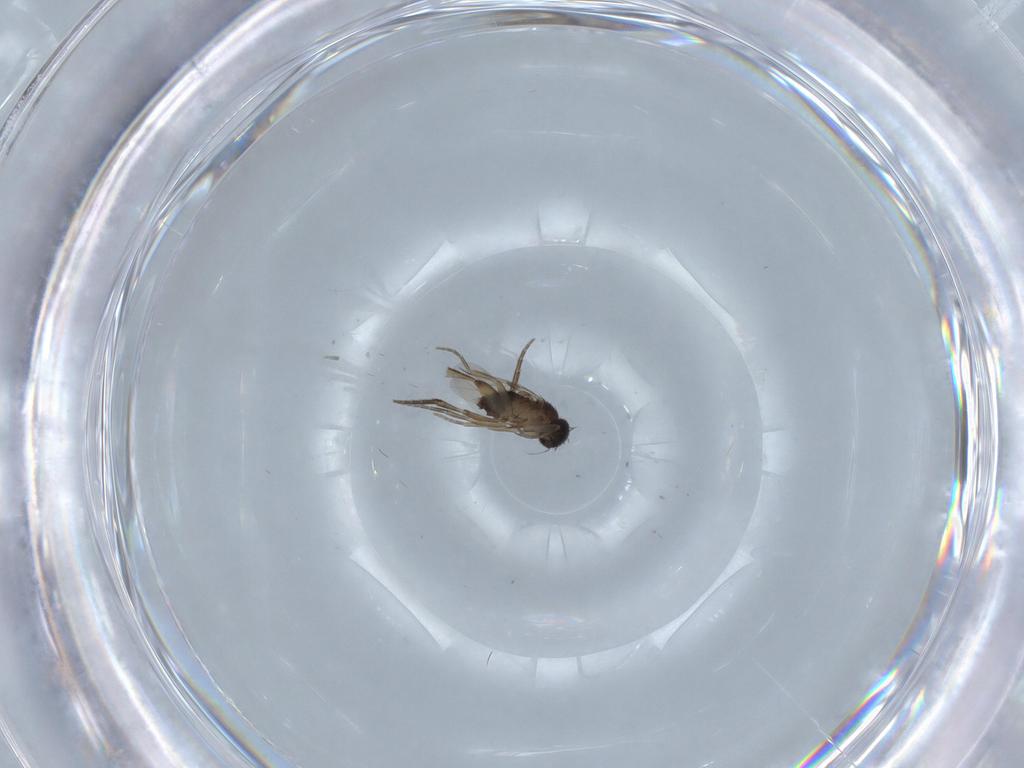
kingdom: Animalia
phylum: Arthropoda
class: Insecta
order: Diptera
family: Phoridae
